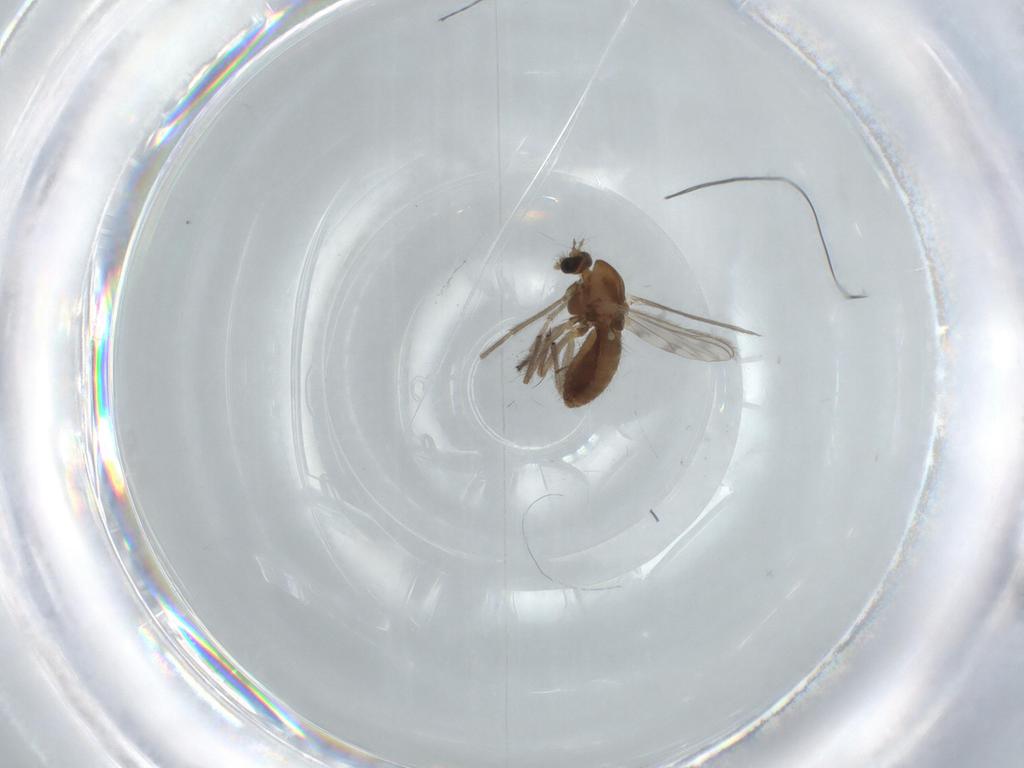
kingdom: Animalia
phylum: Arthropoda
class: Insecta
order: Diptera
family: Chironomidae
